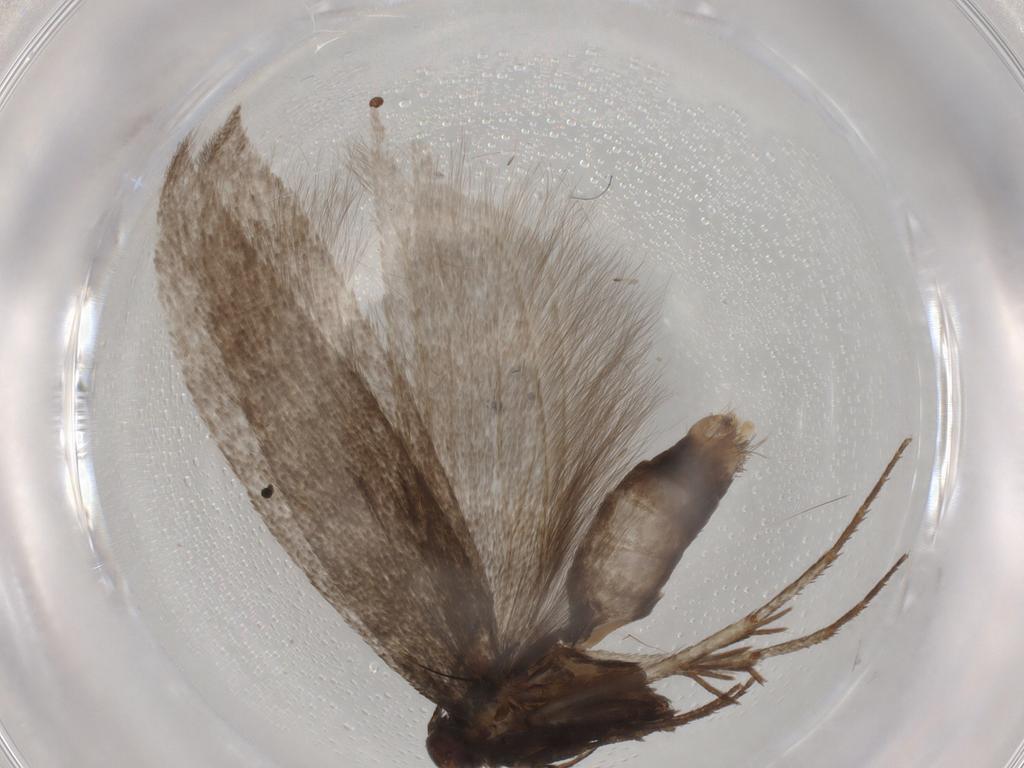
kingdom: Animalia
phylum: Arthropoda
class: Insecta
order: Lepidoptera
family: Gelechiidae
